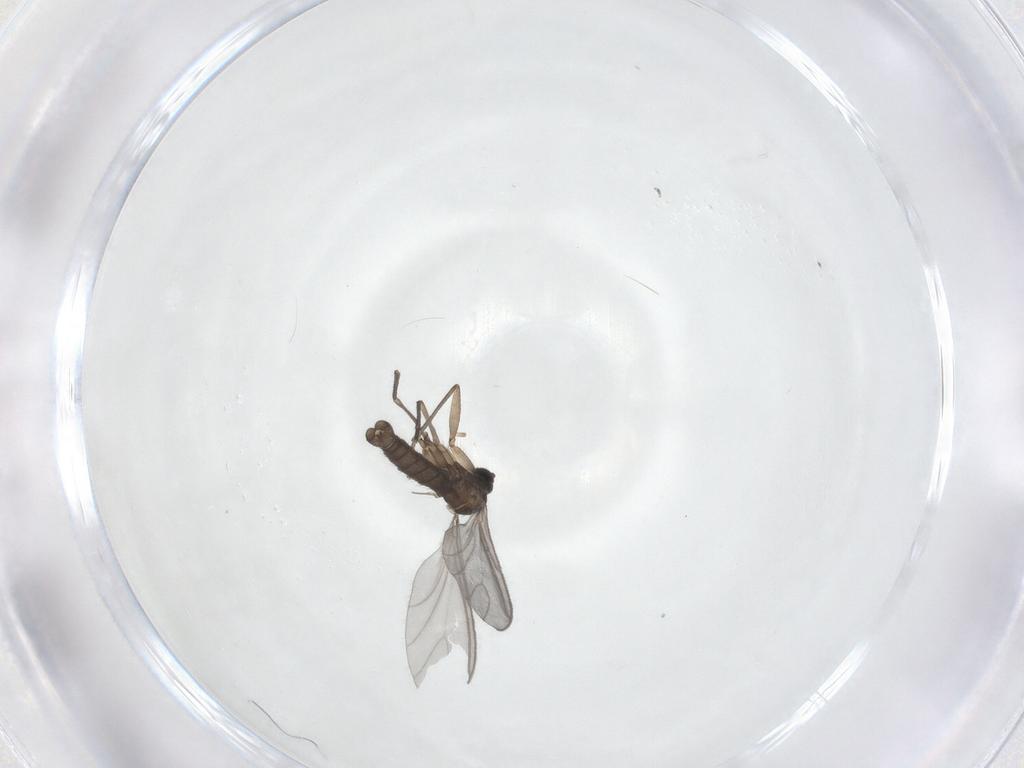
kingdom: Animalia
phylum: Arthropoda
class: Insecta
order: Diptera
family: Sciaridae
